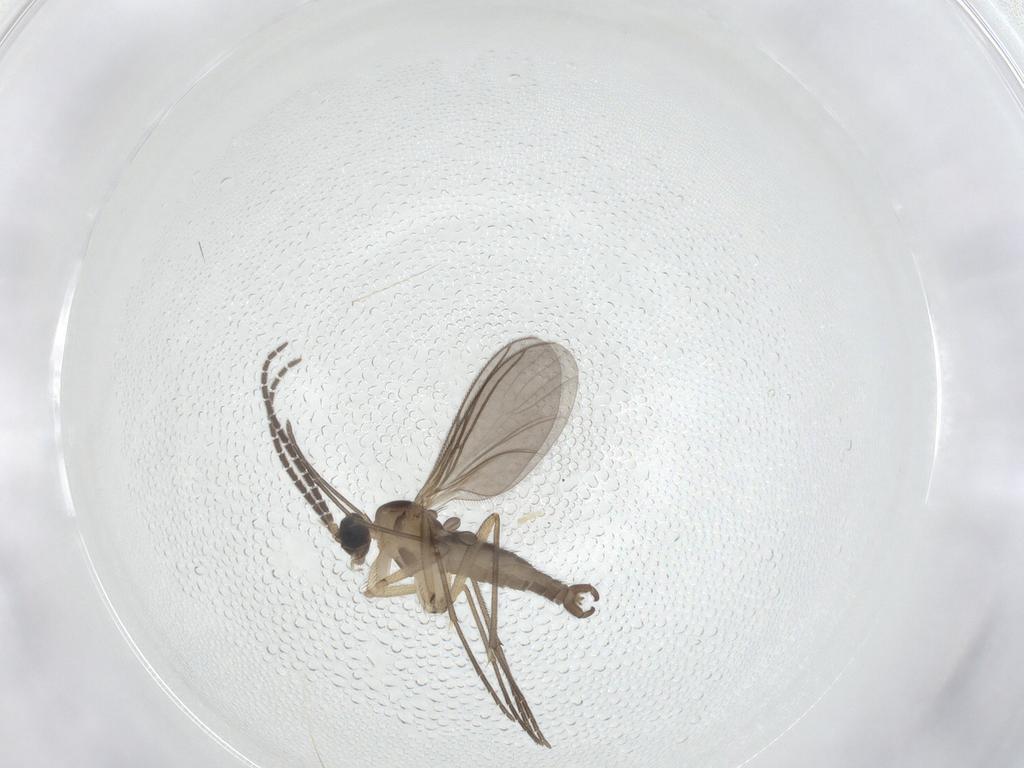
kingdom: Animalia
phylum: Arthropoda
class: Insecta
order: Diptera
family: Sciaridae
